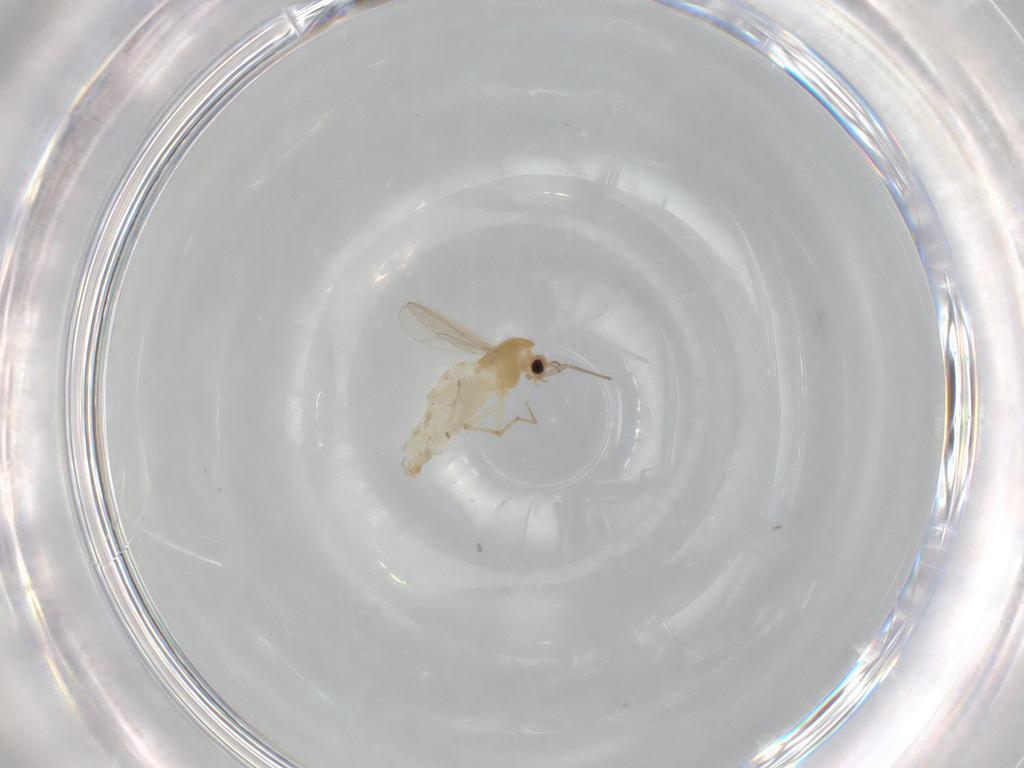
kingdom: Animalia
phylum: Arthropoda
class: Insecta
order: Diptera
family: Chironomidae
